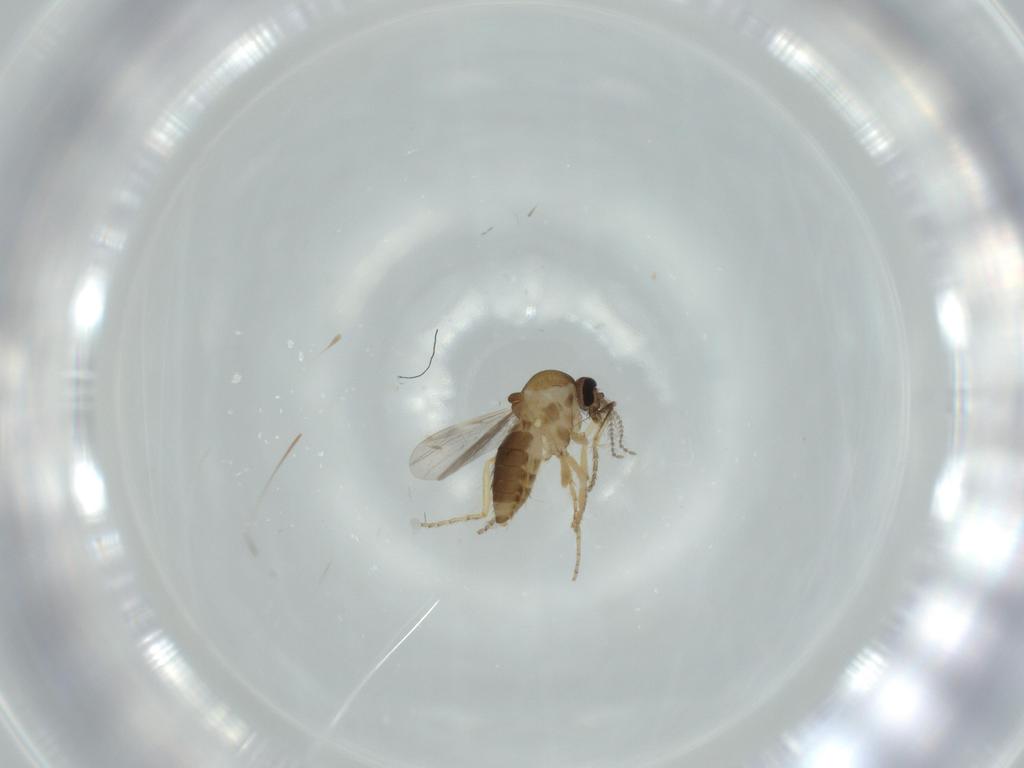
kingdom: Animalia
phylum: Arthropoda
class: Insecta
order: Diptera
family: Ceratopogonidae
